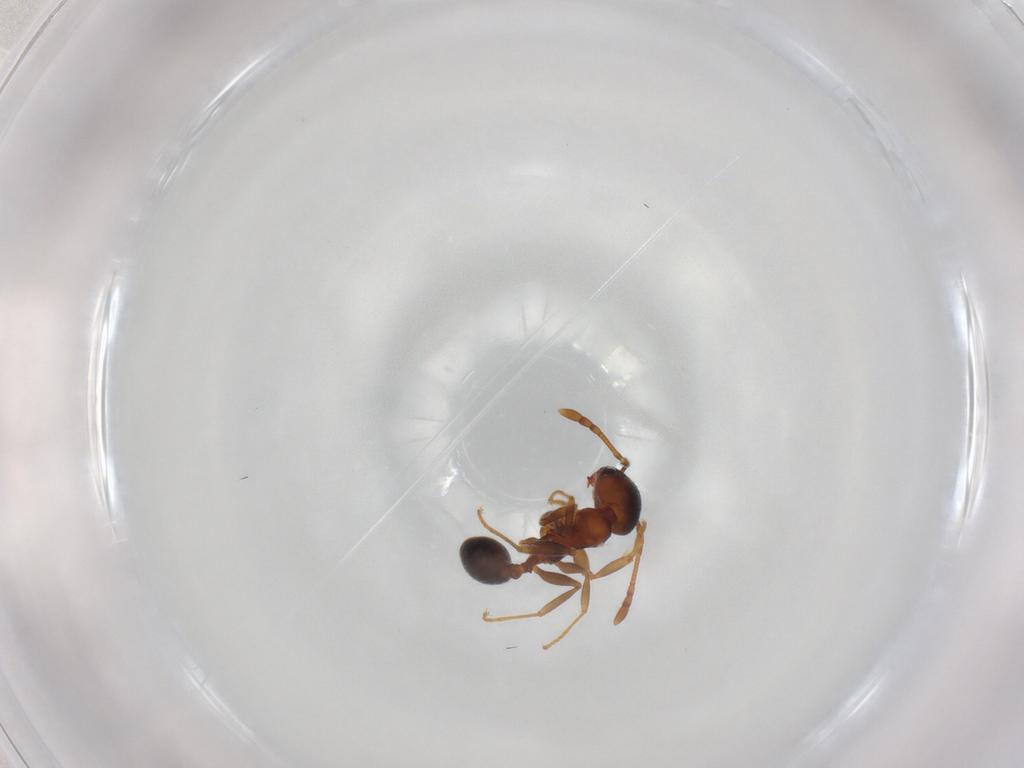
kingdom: Animalia
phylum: Arthropoda
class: Insecta
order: Hymenoptera
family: Formicidae
